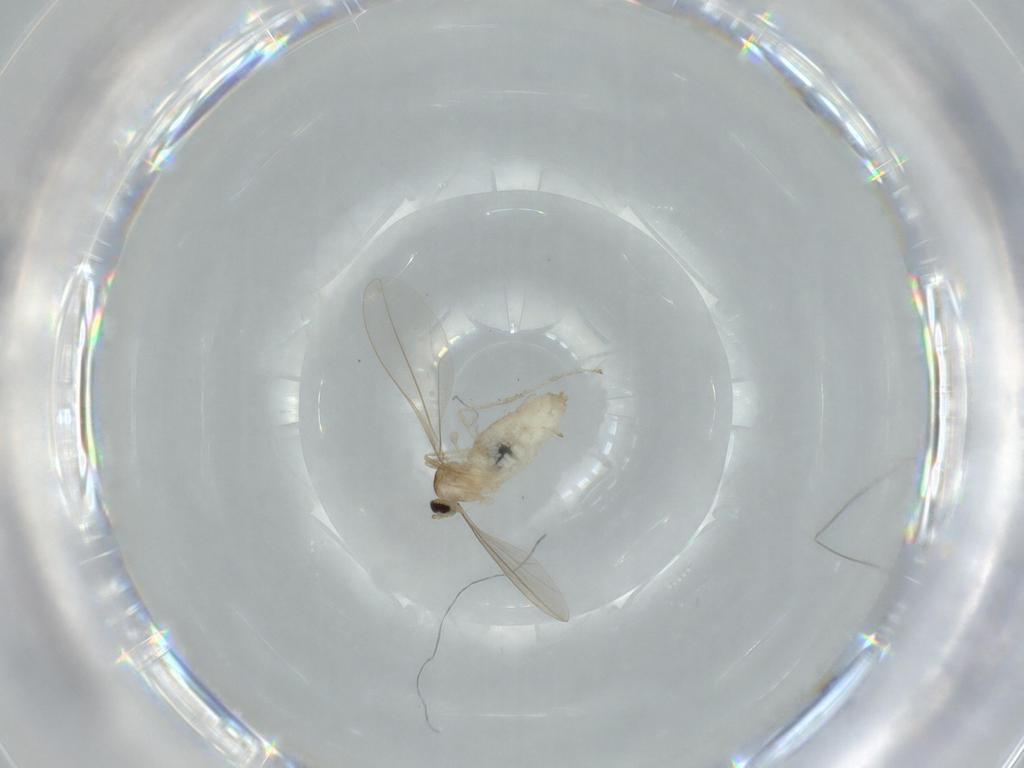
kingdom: Animalia
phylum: Arthropoda
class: Insecta
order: Diptera
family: Cecidomyiidae
